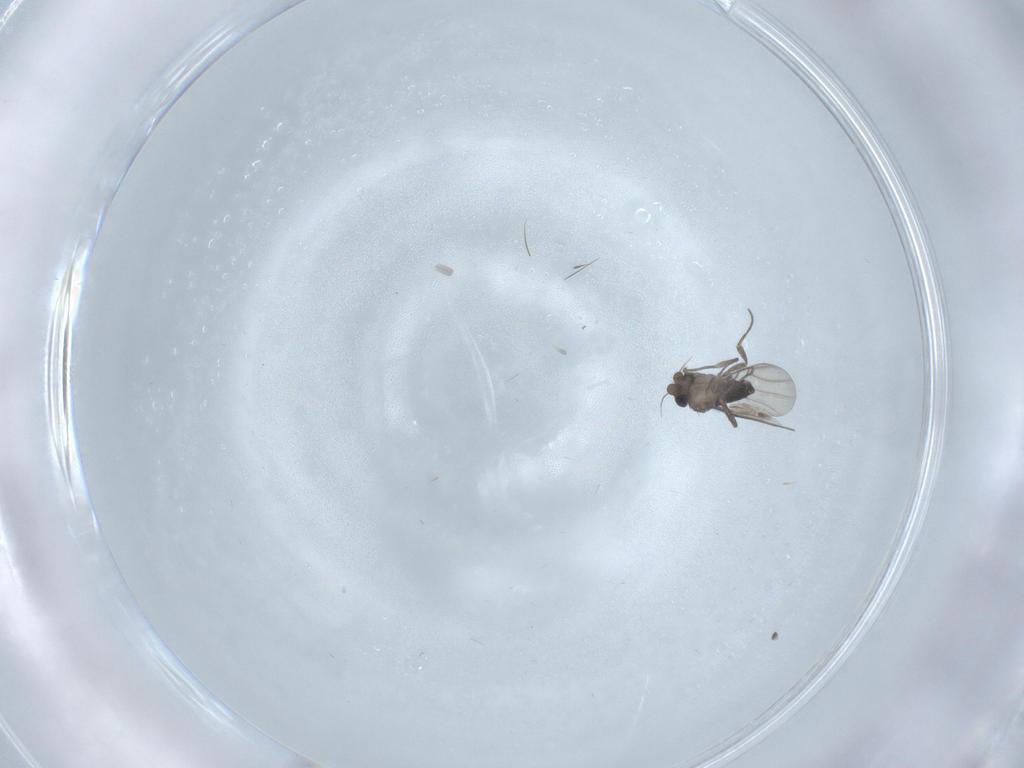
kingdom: Animalia
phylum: Arthropoda
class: Insecta
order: Diptera
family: Phoridae
